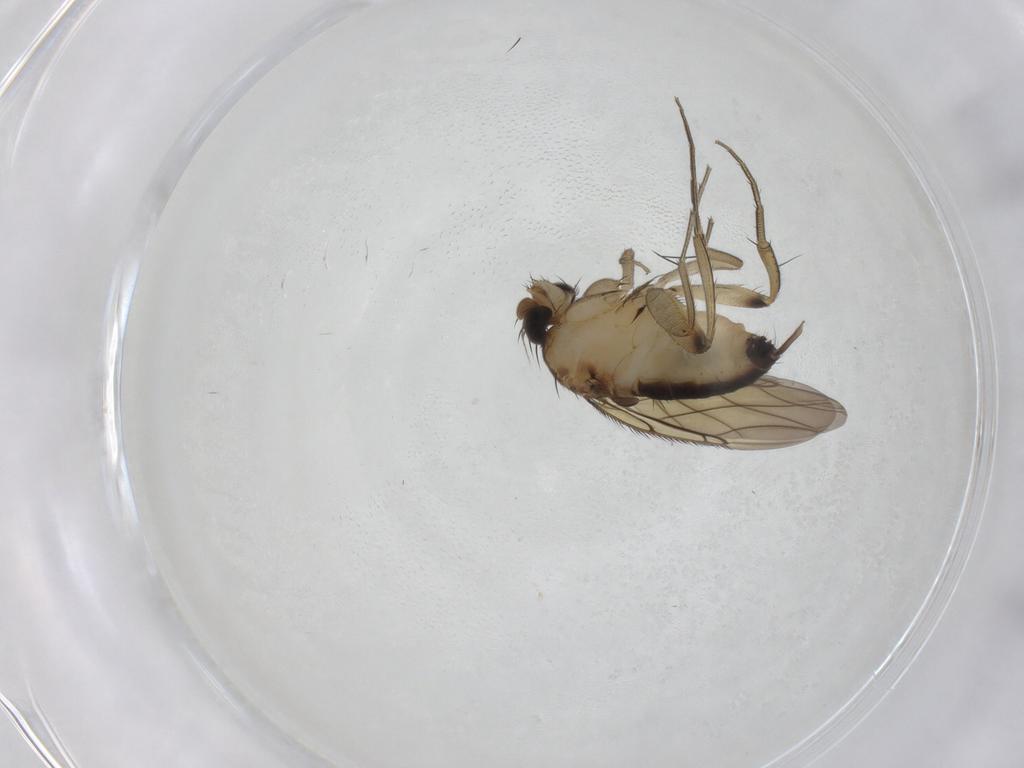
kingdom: Animalia
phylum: Arthropoda
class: Insecta
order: Diptera
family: Phoridae
